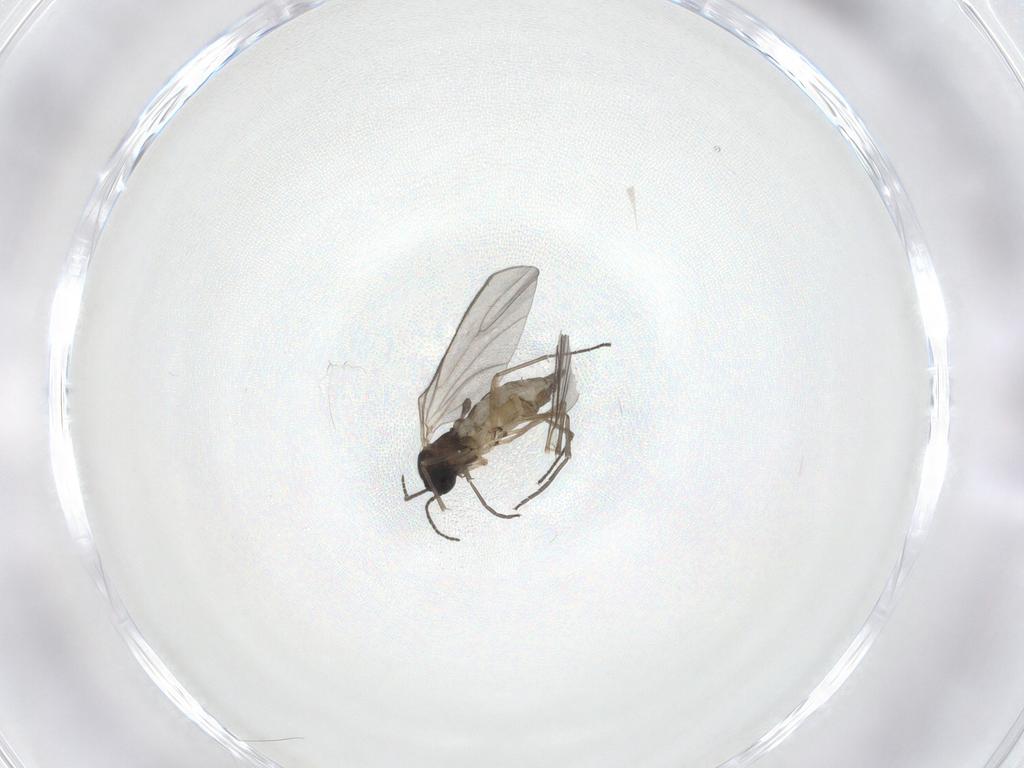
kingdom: Animalia
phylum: Arthropoda
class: Insecta
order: Diptera
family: Sciaridae
